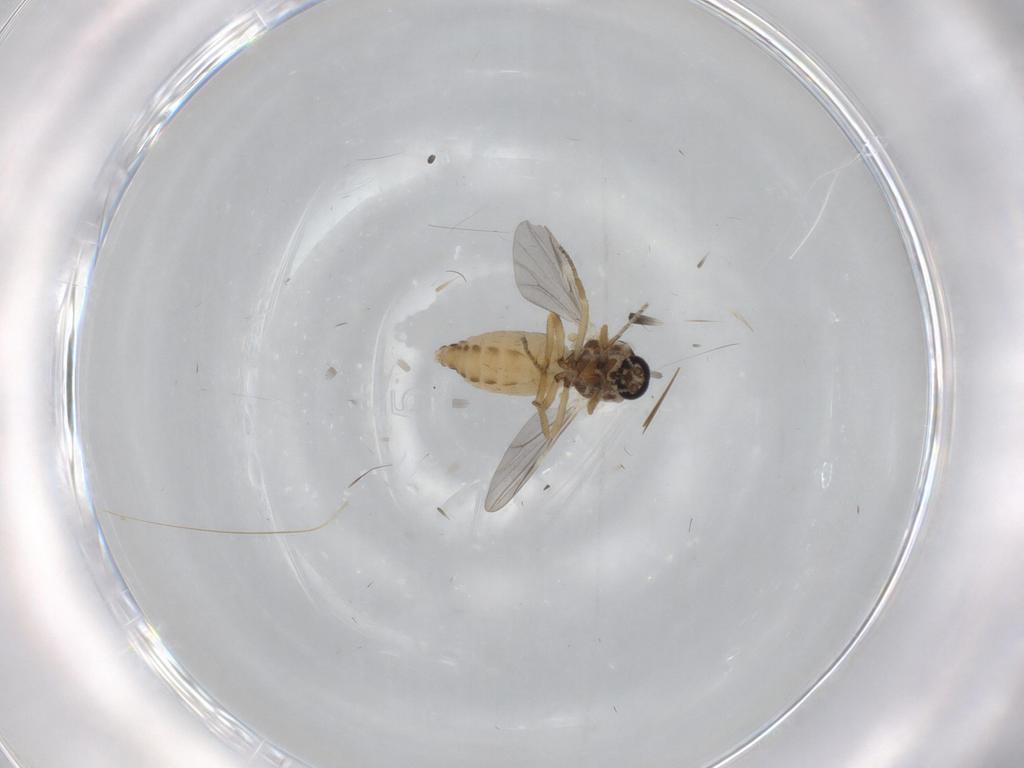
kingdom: Animalia
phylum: Arthropoda
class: Insecta
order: Diptera
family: Ceratopogonidae
